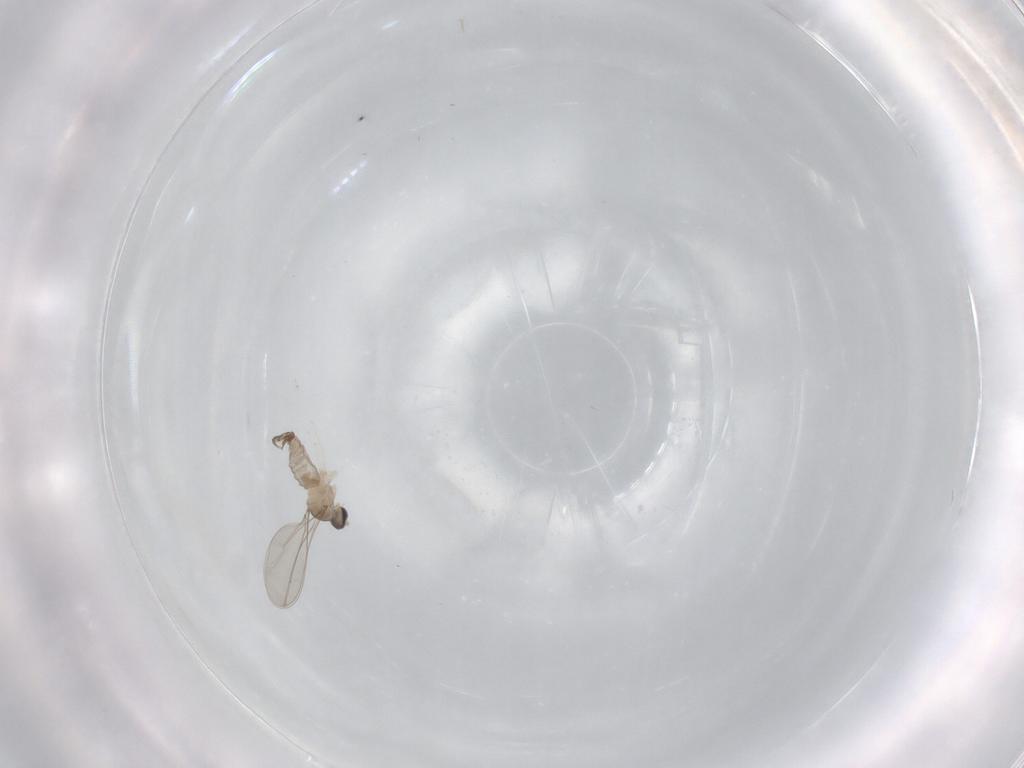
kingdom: Animalia
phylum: Arthropoda
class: Insecta
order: Diptera
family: Cecidomyiidae
